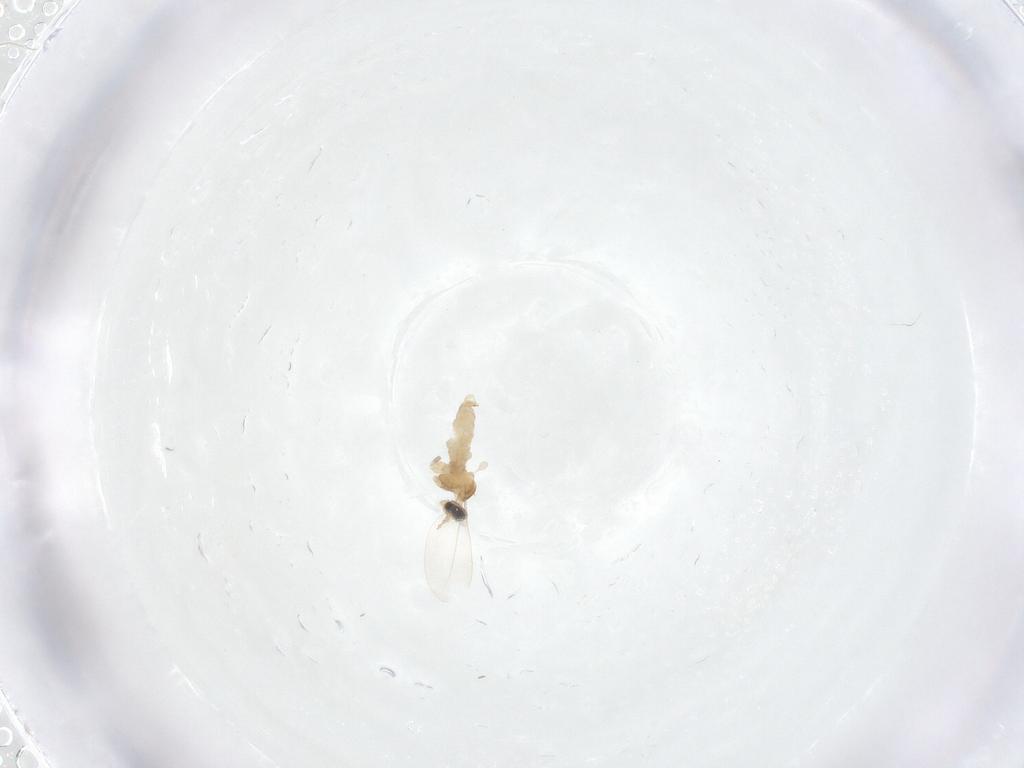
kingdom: Animalia
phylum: Arthropoda
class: Insecta
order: Diptera
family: Cecidomyiidae
